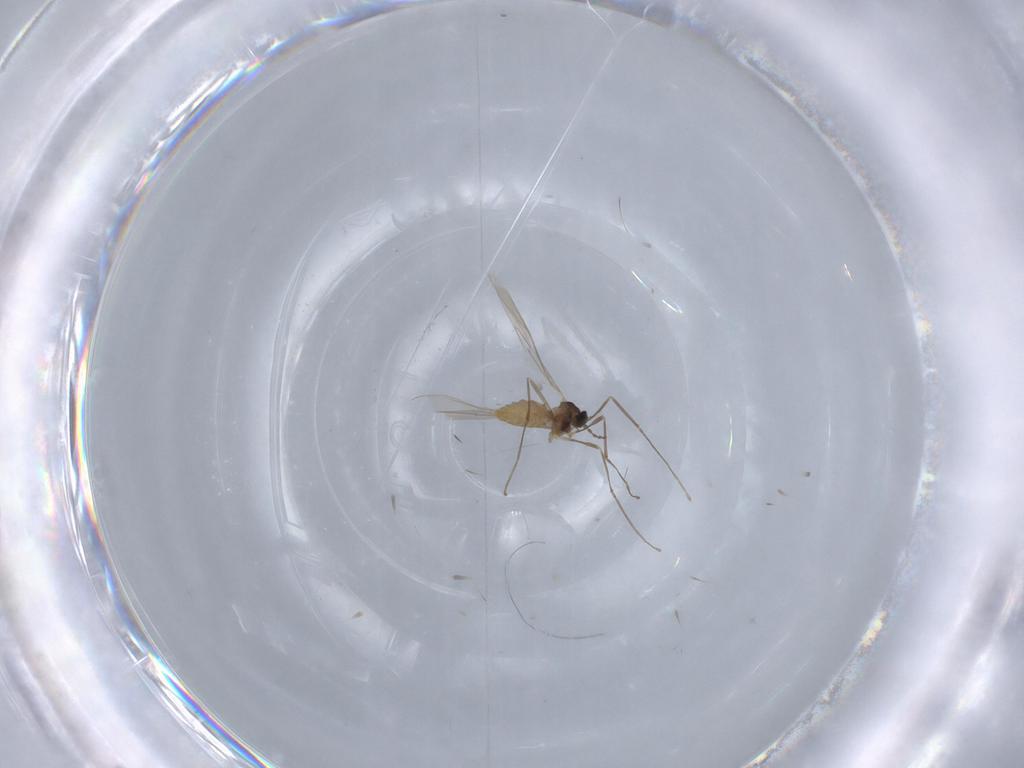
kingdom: Animalia
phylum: Arthropoda
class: Insecta
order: Diptera
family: Cecidomyiidae
